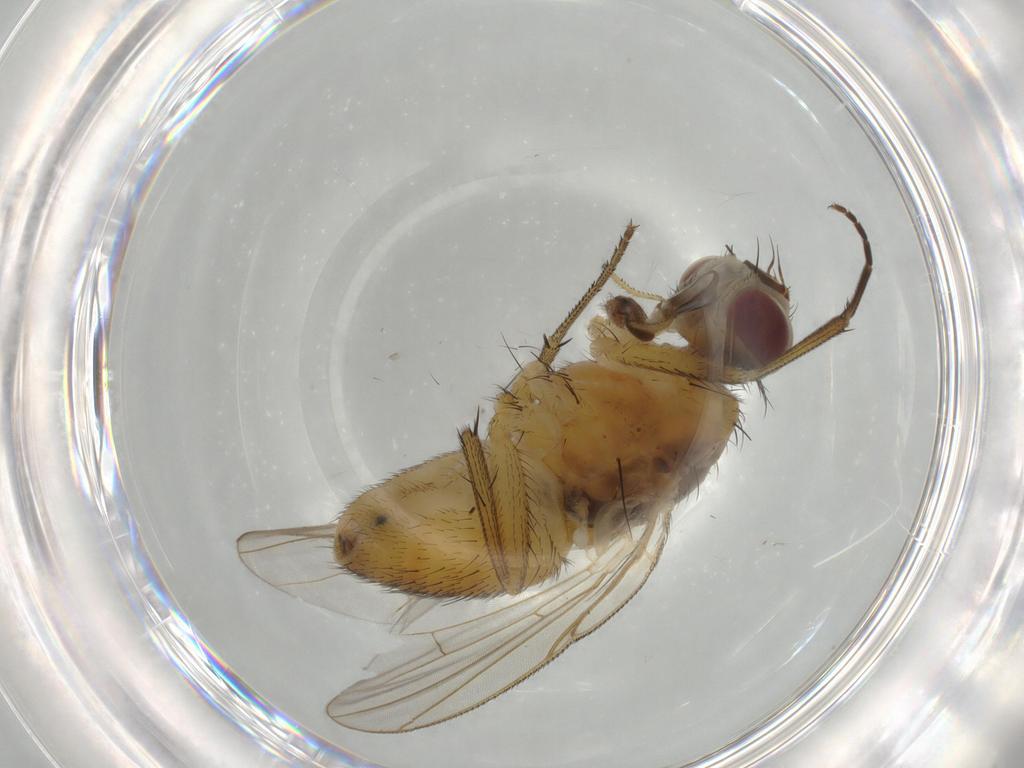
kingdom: Animalia
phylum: Arthropoda
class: Insecta
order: Diptera
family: Muscidae
